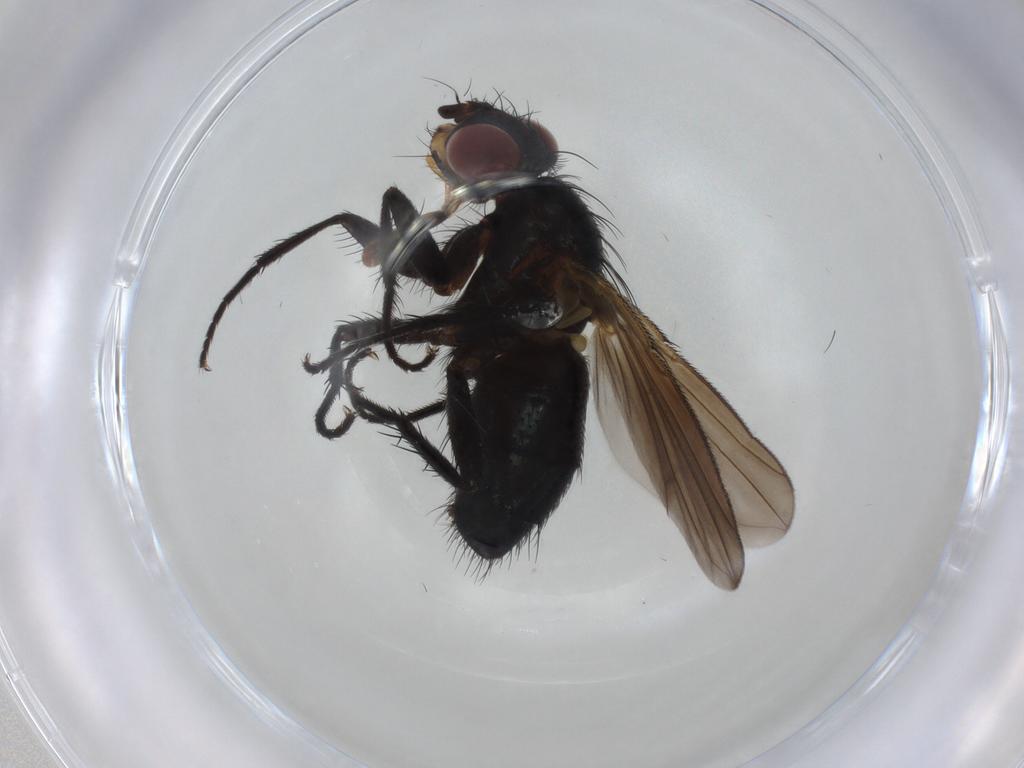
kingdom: Animalia
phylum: Arthropoda
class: Insecta
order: Diptera
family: Calliphoridae
